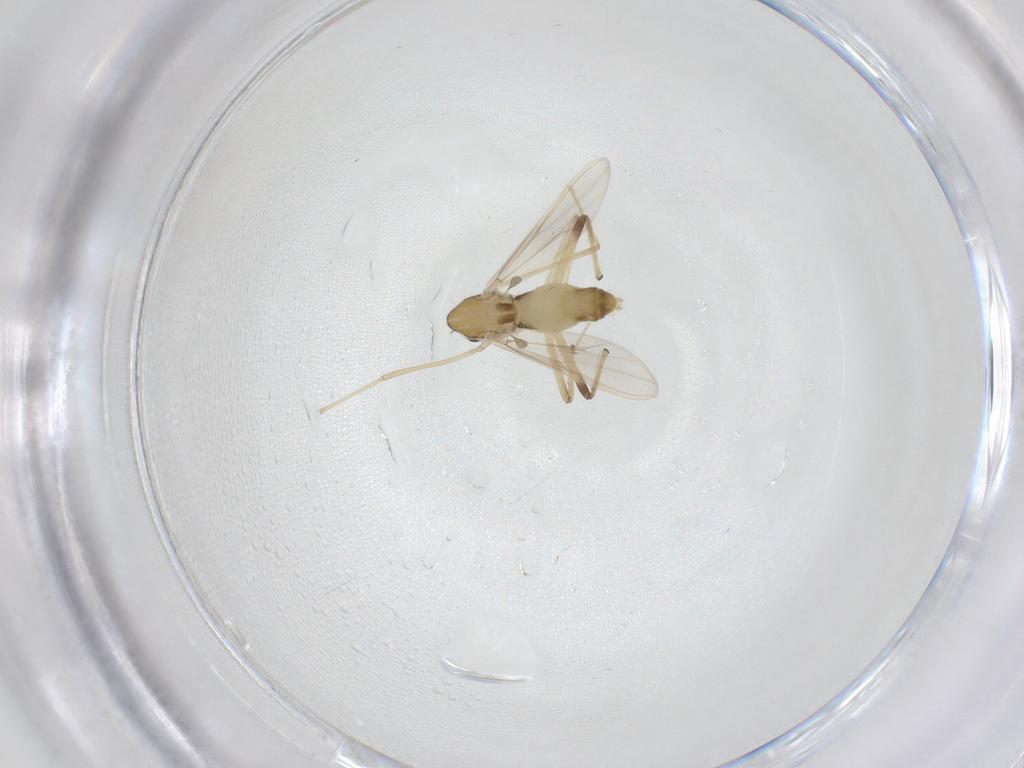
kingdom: Animalia
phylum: Arthropoda
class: Insecta
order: Diptera
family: Chironomidae
